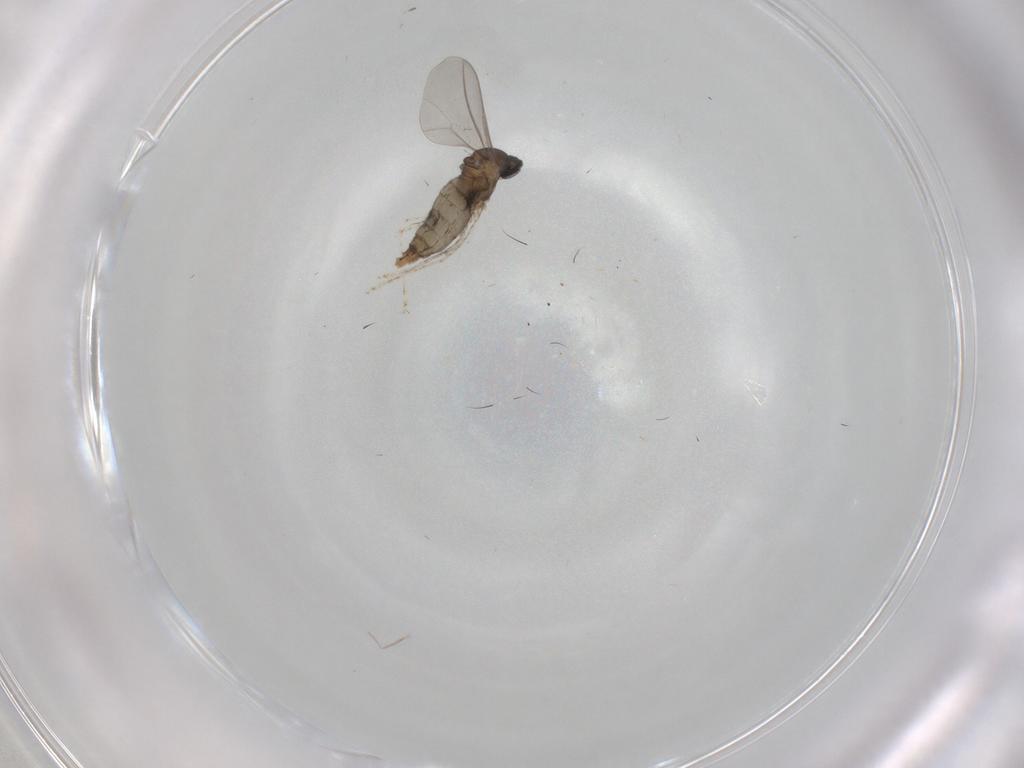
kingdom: Animalia
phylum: Arthropoda
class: Insecta
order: Diptera
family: Cecidomyiidae
